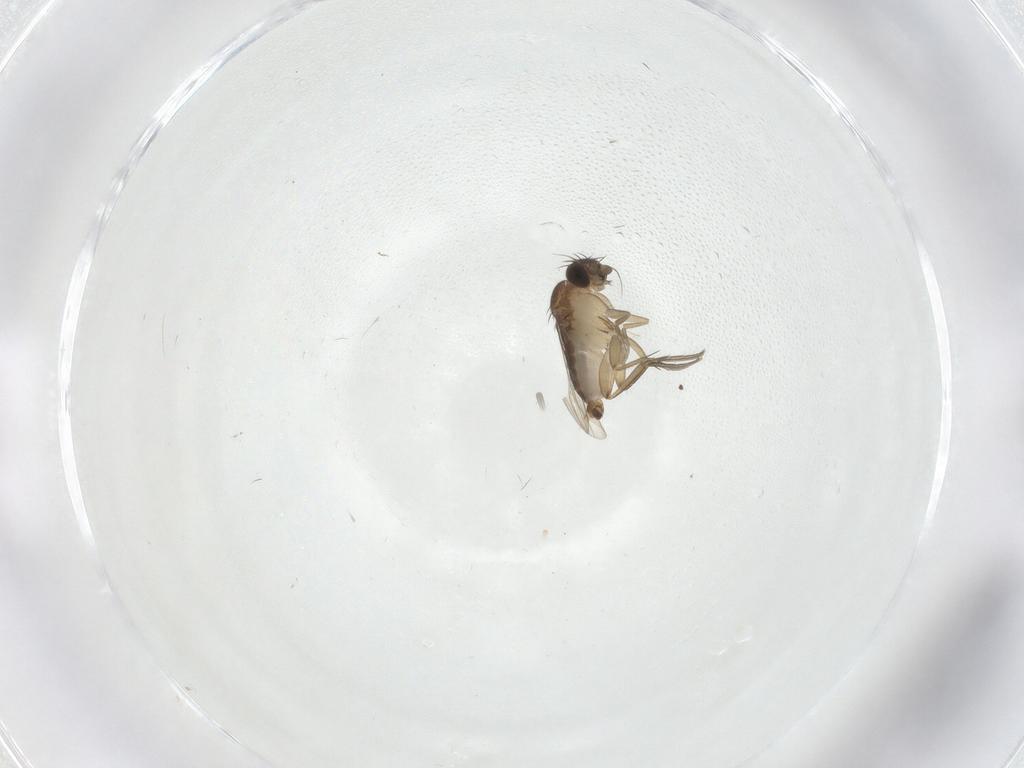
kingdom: Animalia
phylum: Arthropoda
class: Insecta
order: Diptera
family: Phoridae
